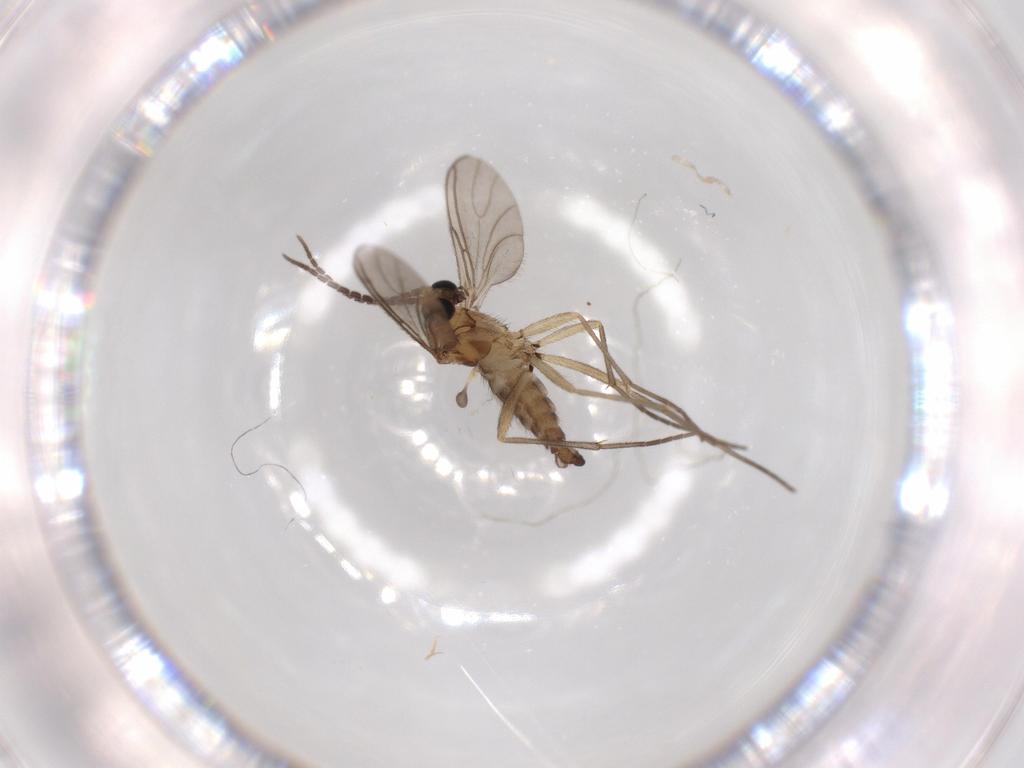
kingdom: Animalia
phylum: Arthropoda
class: Insecta
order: Diptera
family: Sciaridae
